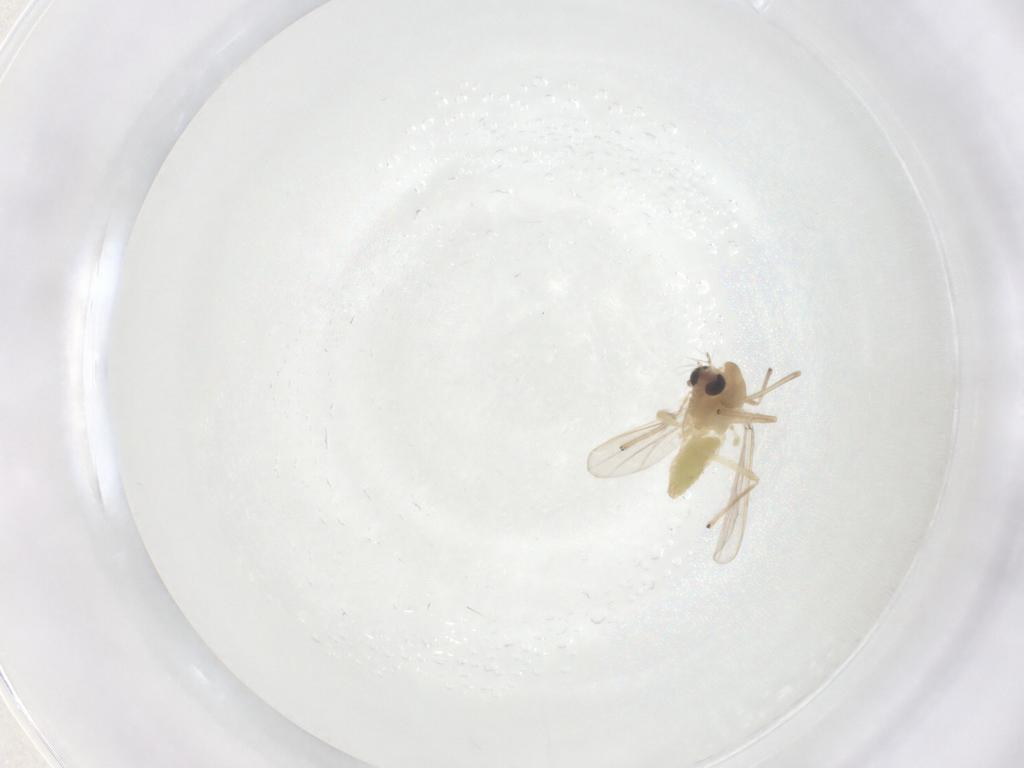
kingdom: Animalia
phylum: Arthropoda
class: Insecta
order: Diptera
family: Chironomidae
